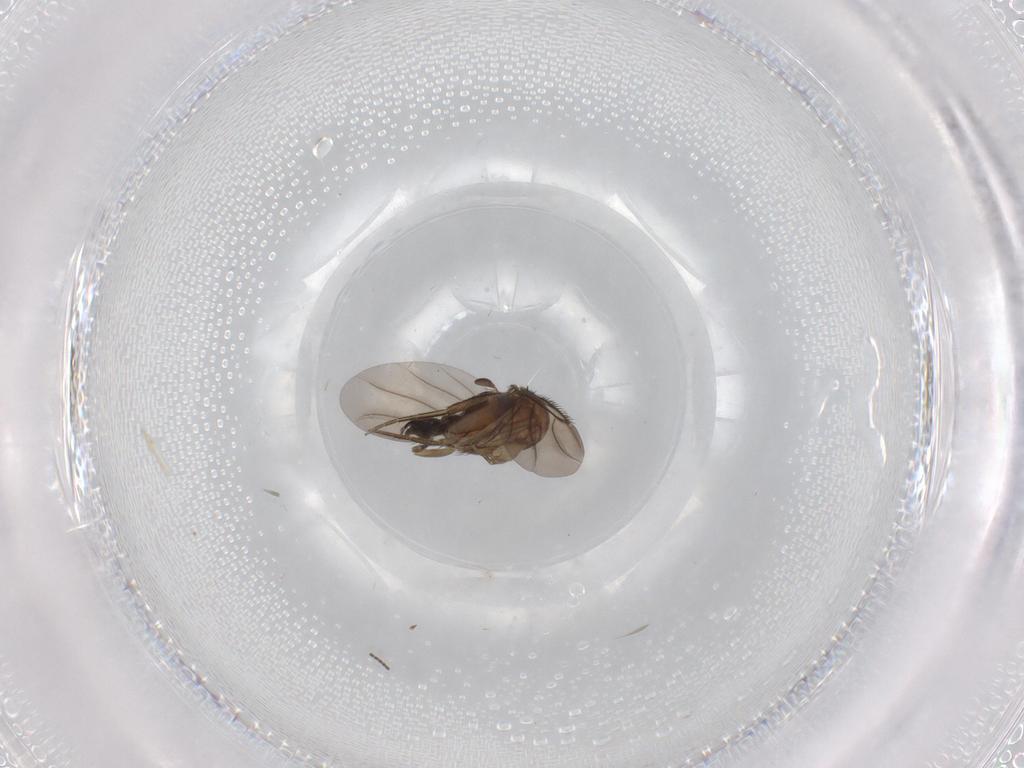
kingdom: Animalia
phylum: Arthropoda
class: Insecta
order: Diptera
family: Phoridae
